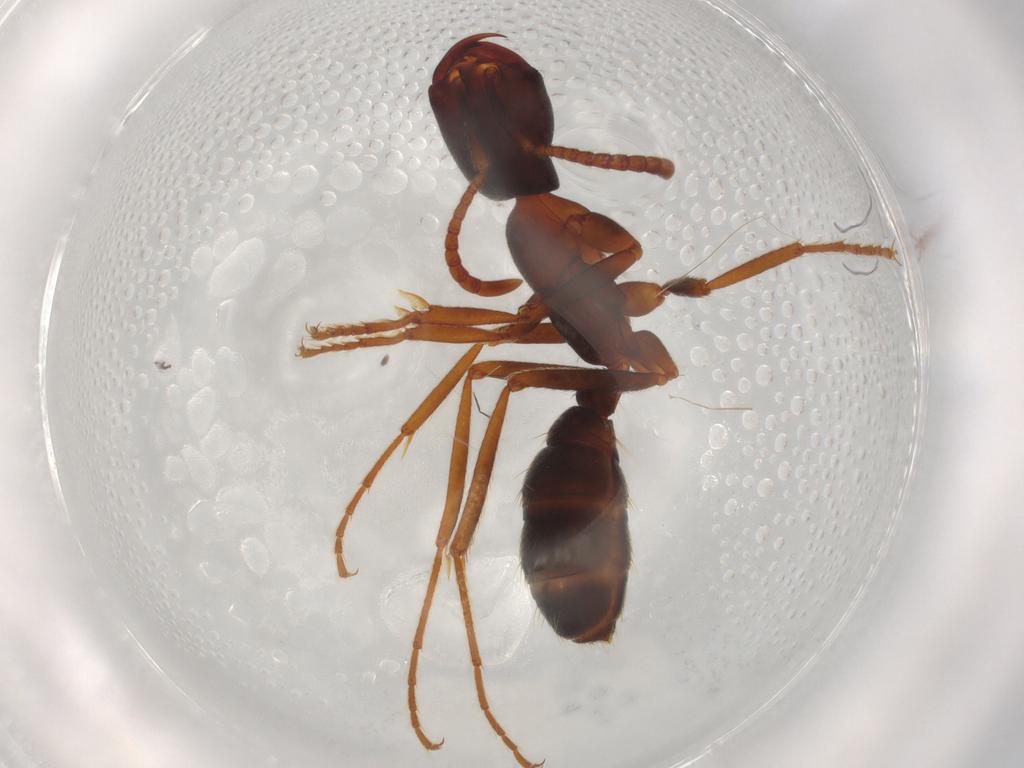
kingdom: Animalia
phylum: Arthropoda
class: Insecta
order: Hymenoptera
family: Formicidae
